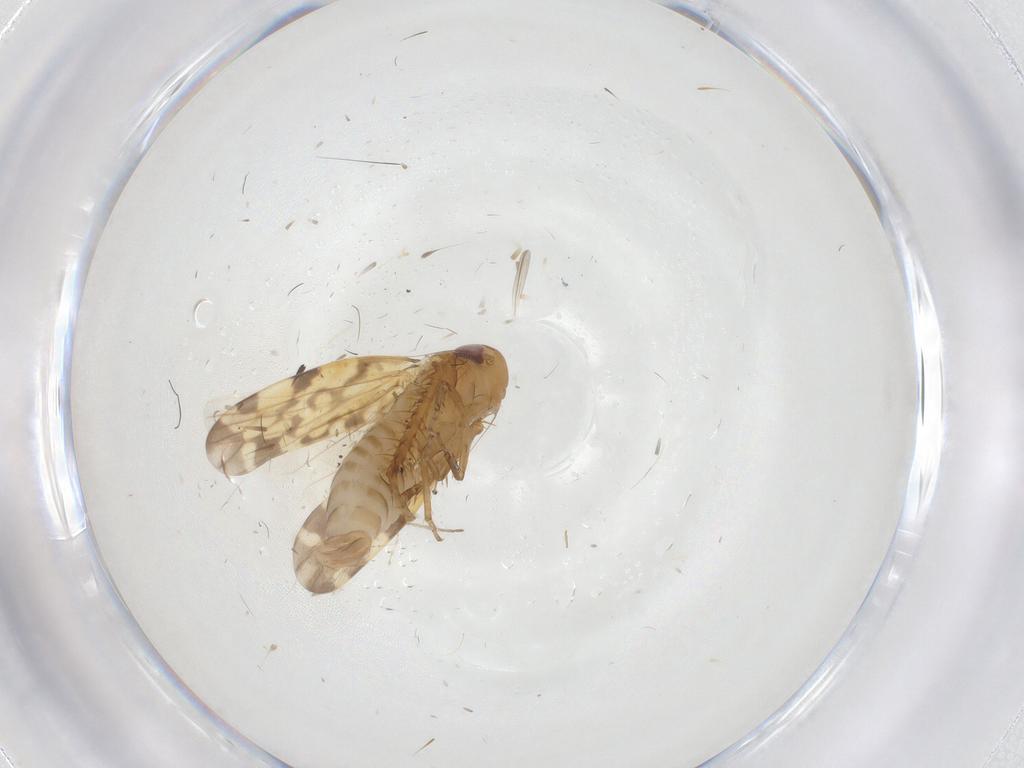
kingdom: Animalia
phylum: Arthropoda
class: Insecta
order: Hemiptera
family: Cicadellidae
